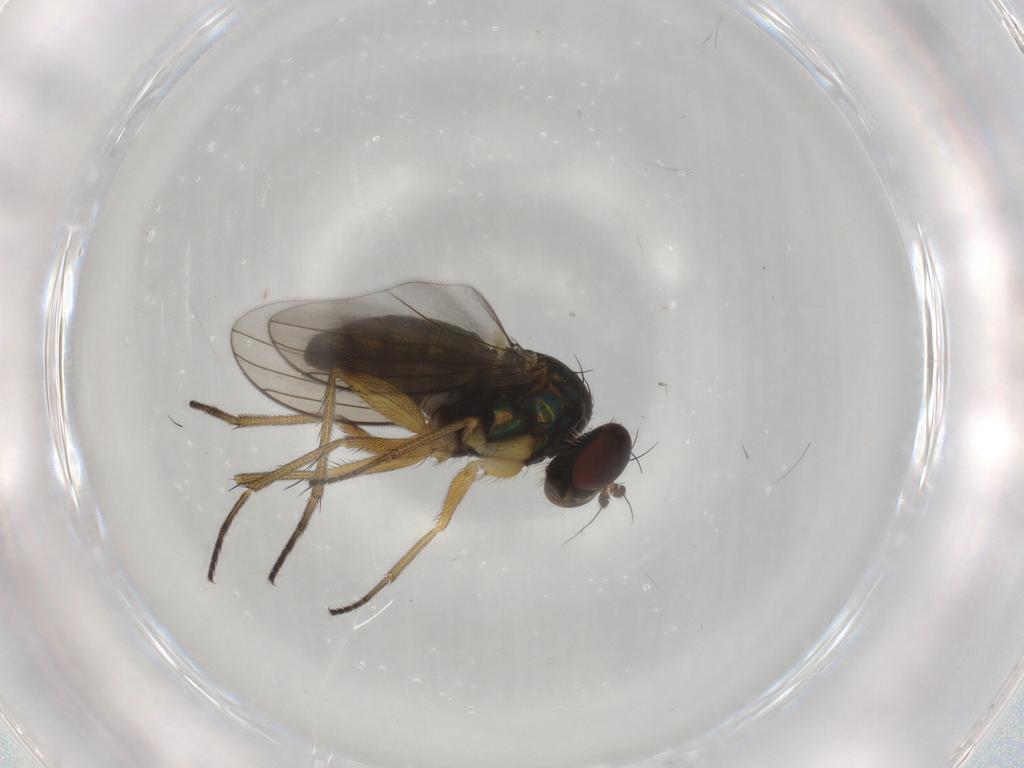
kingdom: Animalia
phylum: Arthropoda
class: Insecta
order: Diptera
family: Dolichopodidae
